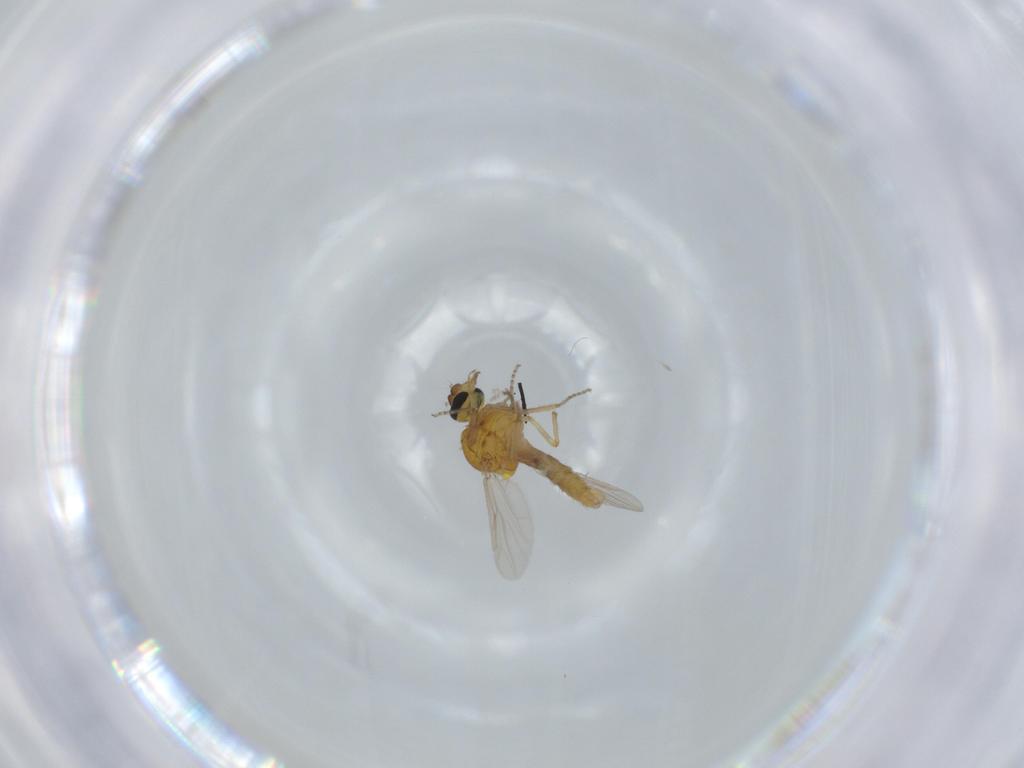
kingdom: Animalia
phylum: Arthropoda
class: Insecta
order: Diptera
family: Ceratopogonidae
